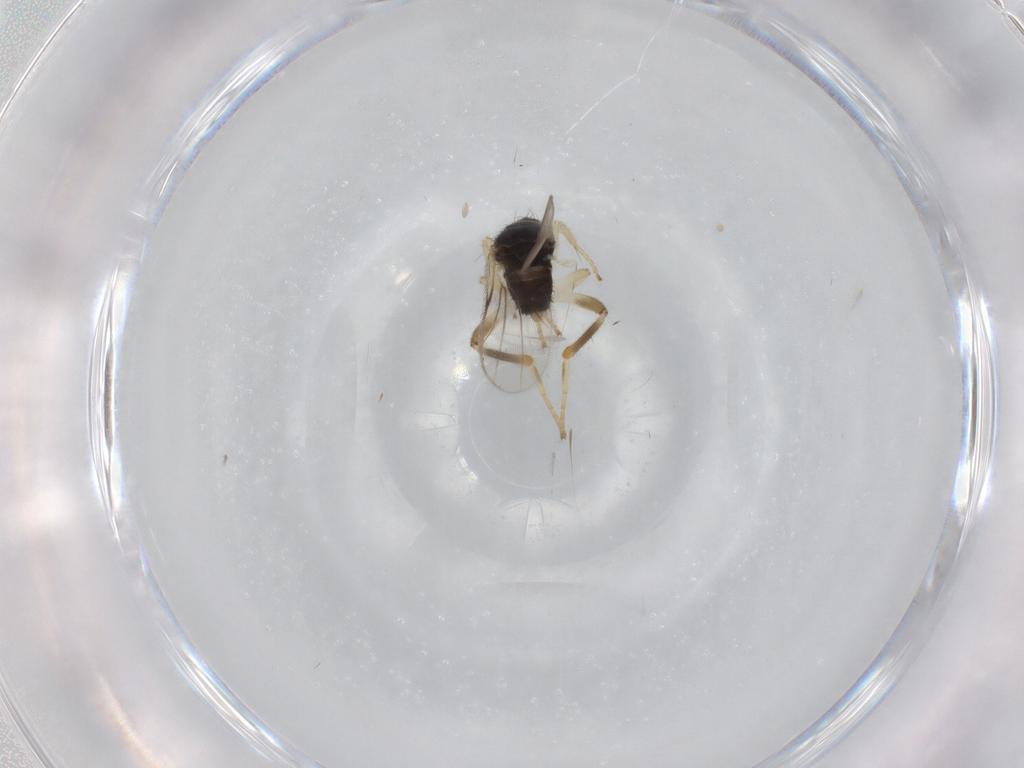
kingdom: Animalia
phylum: Arthropoda
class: Insecta
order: Diptera
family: Hybotidae
